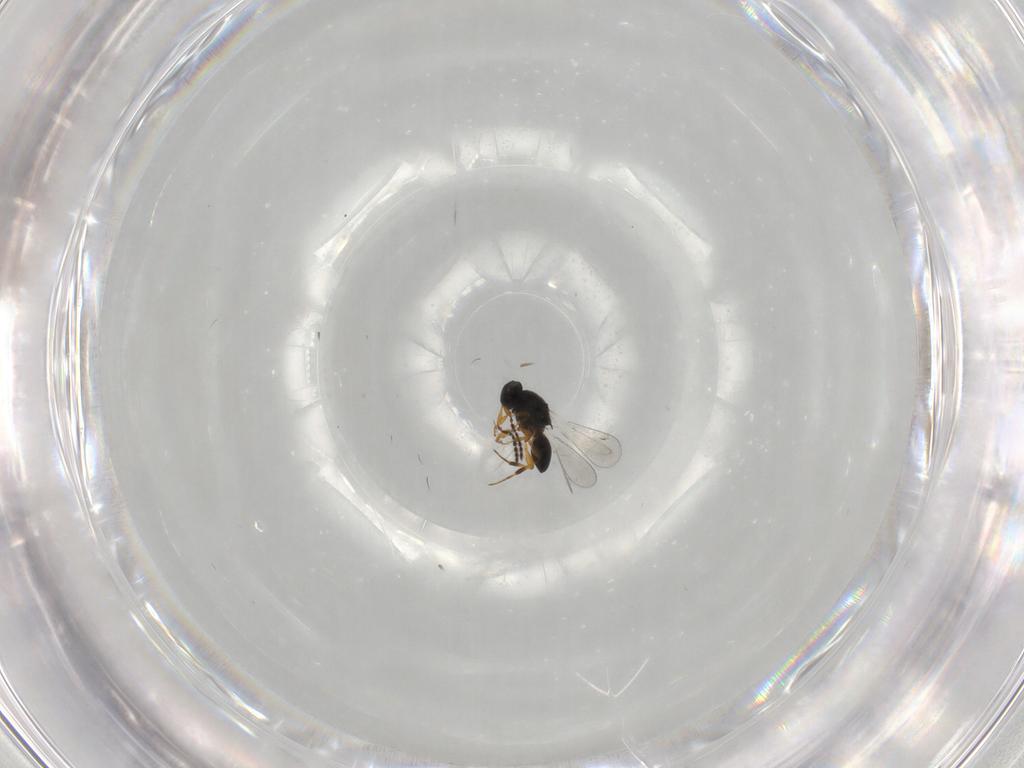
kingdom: Animalia
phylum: Arthropoda
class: Insecta
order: Hymenoptera
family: Platygastridae
